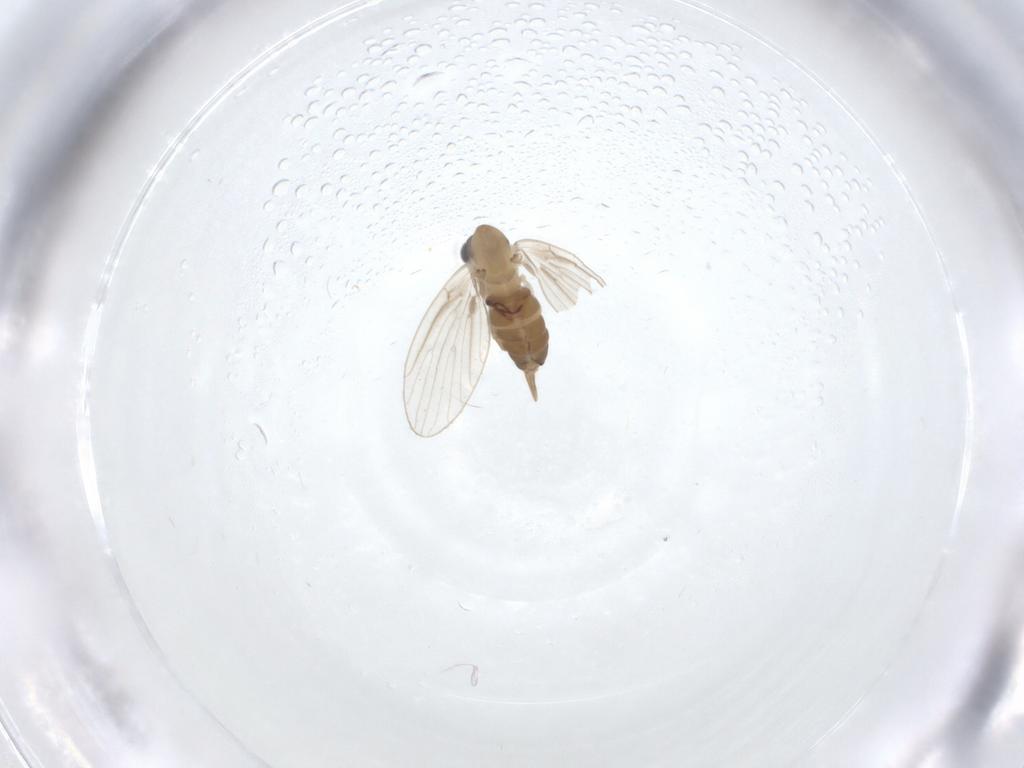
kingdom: Animalia
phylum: Arthropoda
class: Insecta
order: Diptera
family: Psychodidae
